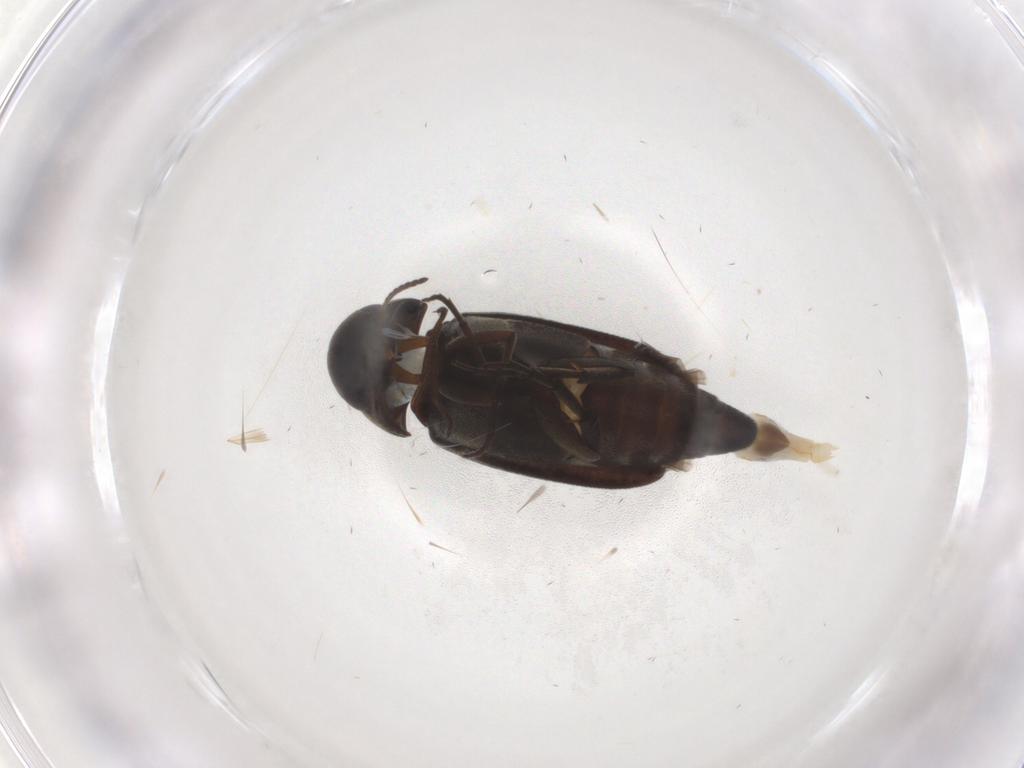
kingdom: Animalia
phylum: Arthropoda
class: Insecta
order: Coleoptera
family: Mordellidae
